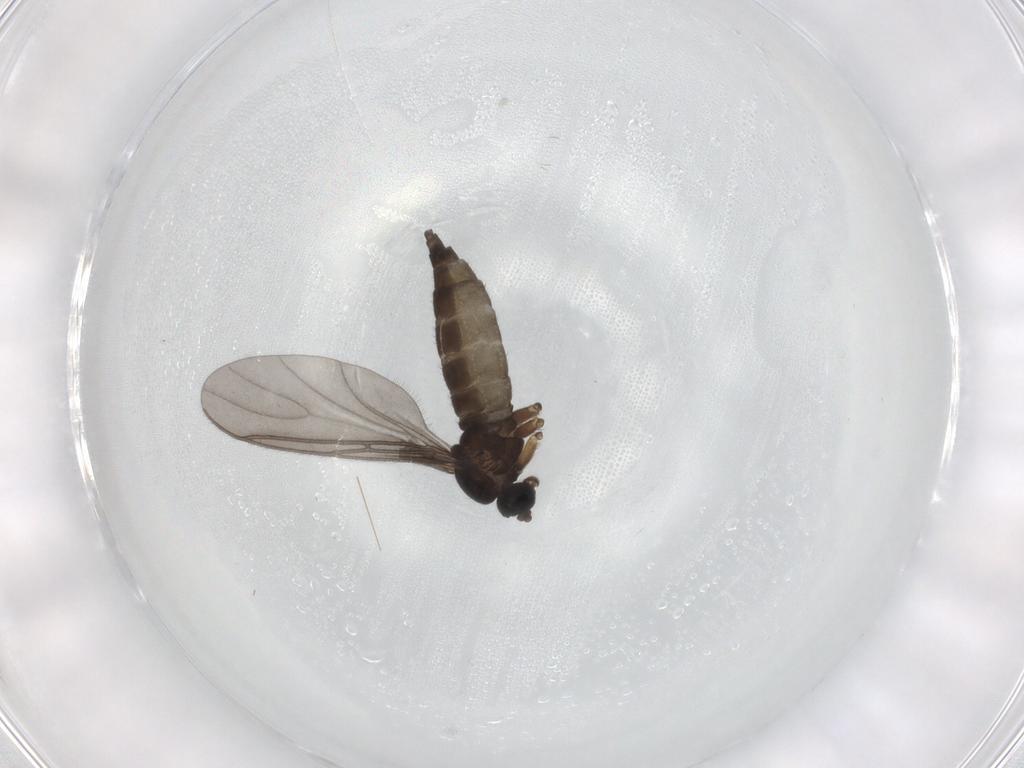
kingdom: Animalia
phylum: Arthropoda
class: Insecta
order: Diptera
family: Sciaridae
